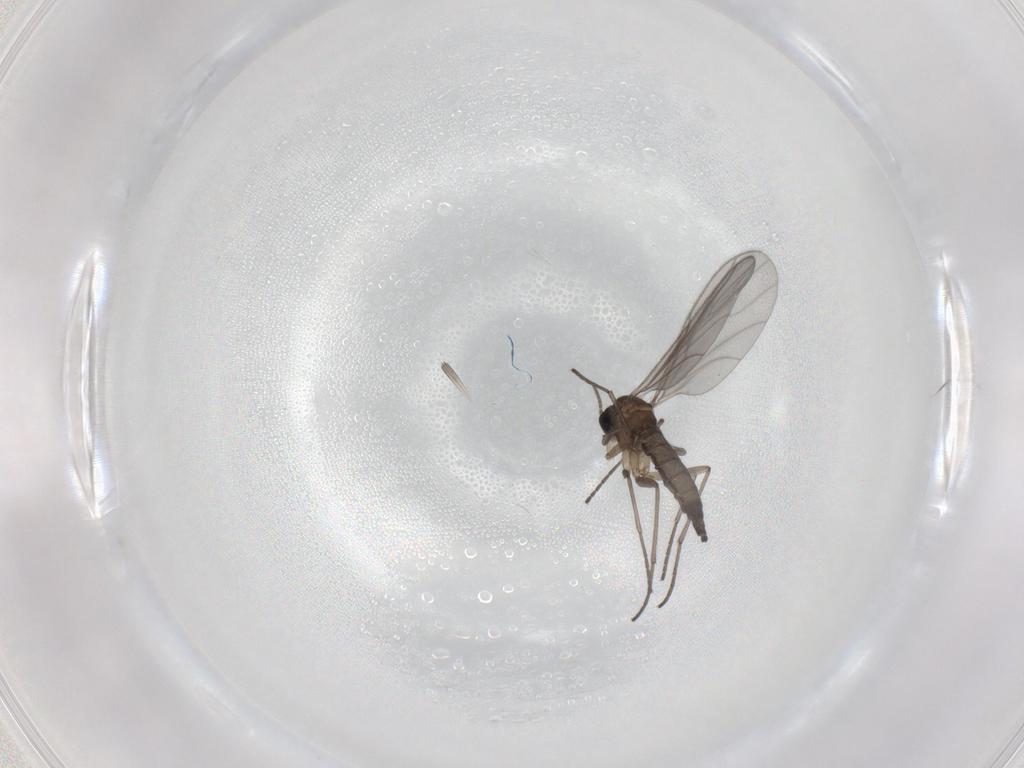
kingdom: Animalia
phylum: Arthropoda
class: Insecta
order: Diptera
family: Sciaridae
